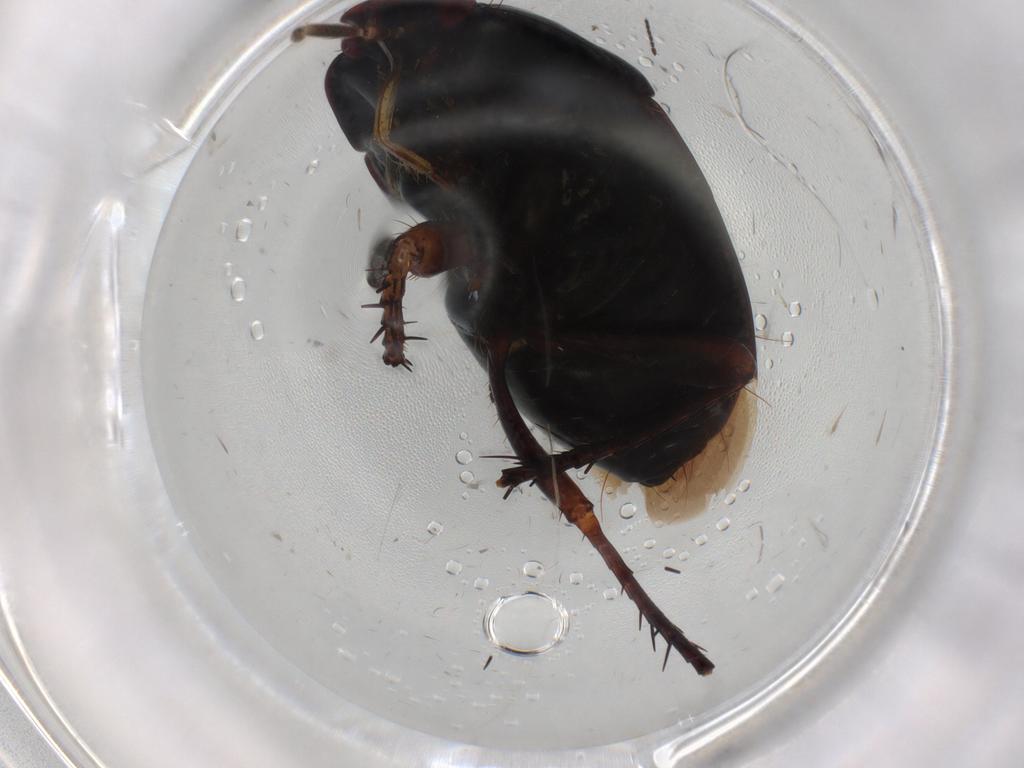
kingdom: Animalia
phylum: Arthropoda
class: Insecta
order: Hemiptera
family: Cydnidae
